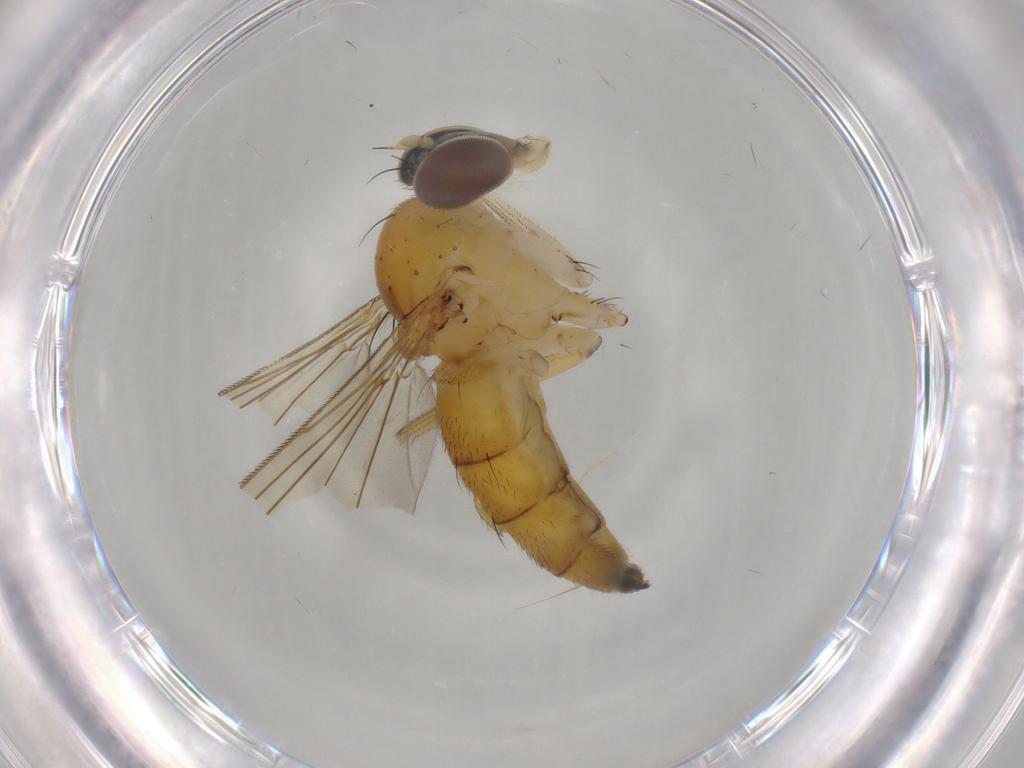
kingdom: Animalia
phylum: Arthropoda
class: Insecta
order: Diptera
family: Dolichopodidae
